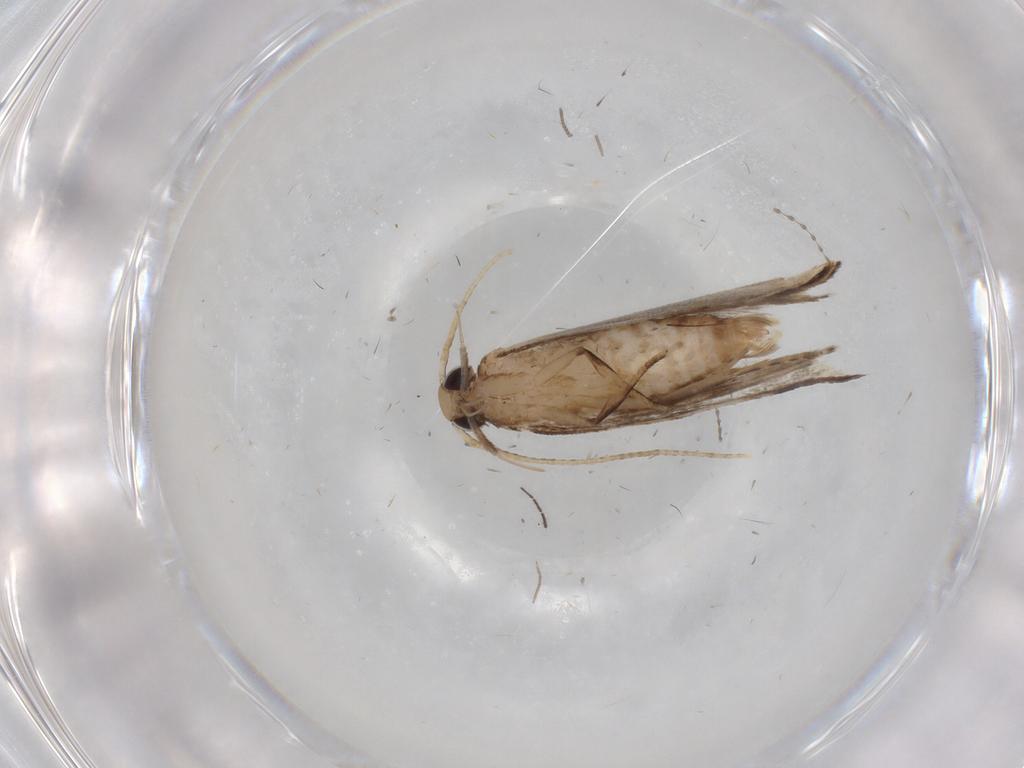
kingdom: Animalia
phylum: Arthropoda
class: Insecta
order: Lepidoptera
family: Gelechiidae
